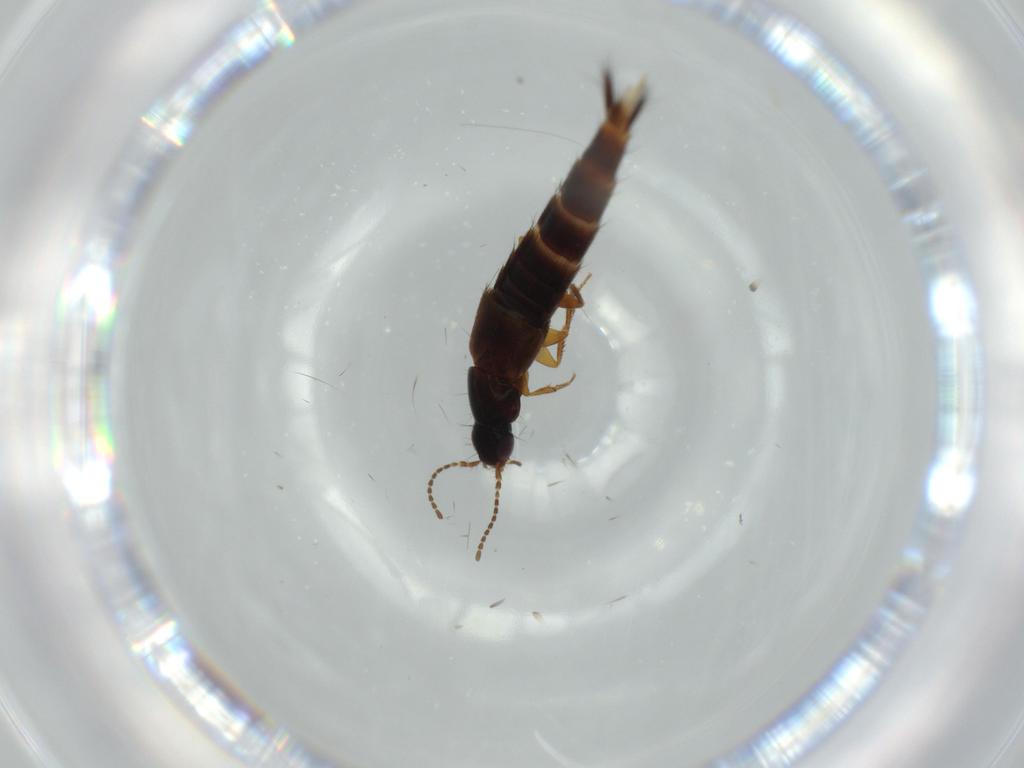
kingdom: Animalia
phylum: Arthropoda
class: Insecta
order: Coleoptera
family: Staphylinidae
